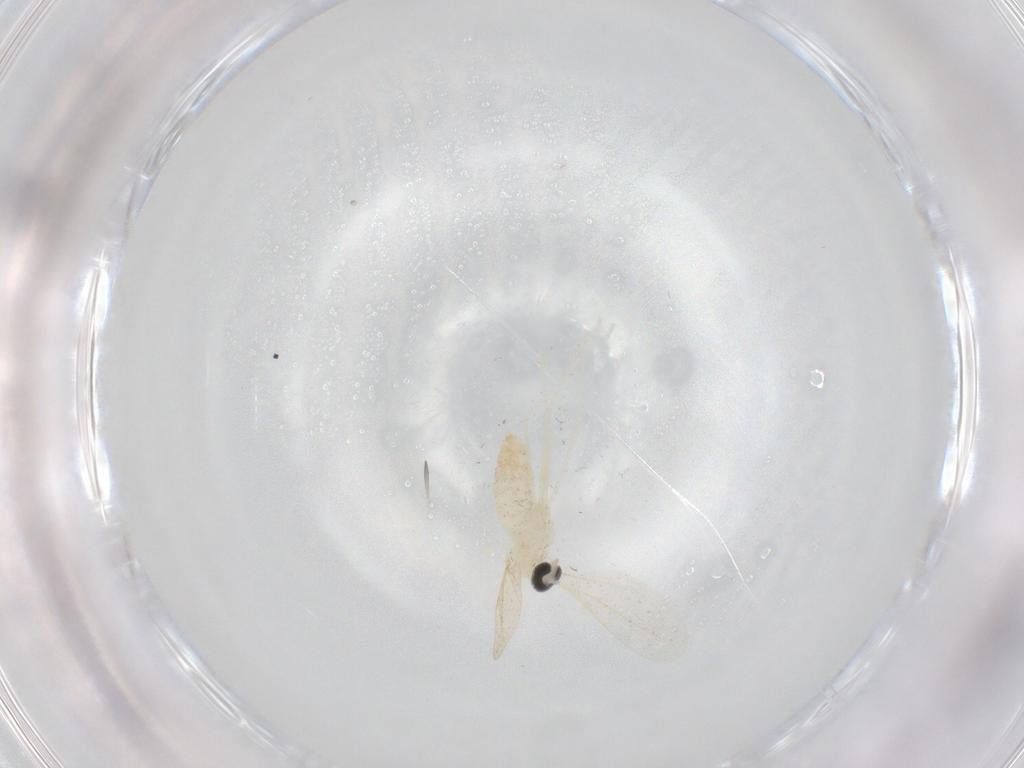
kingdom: Animalia
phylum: Arthropoda
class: Insecta
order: Diptera
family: Cecidomyiidae
